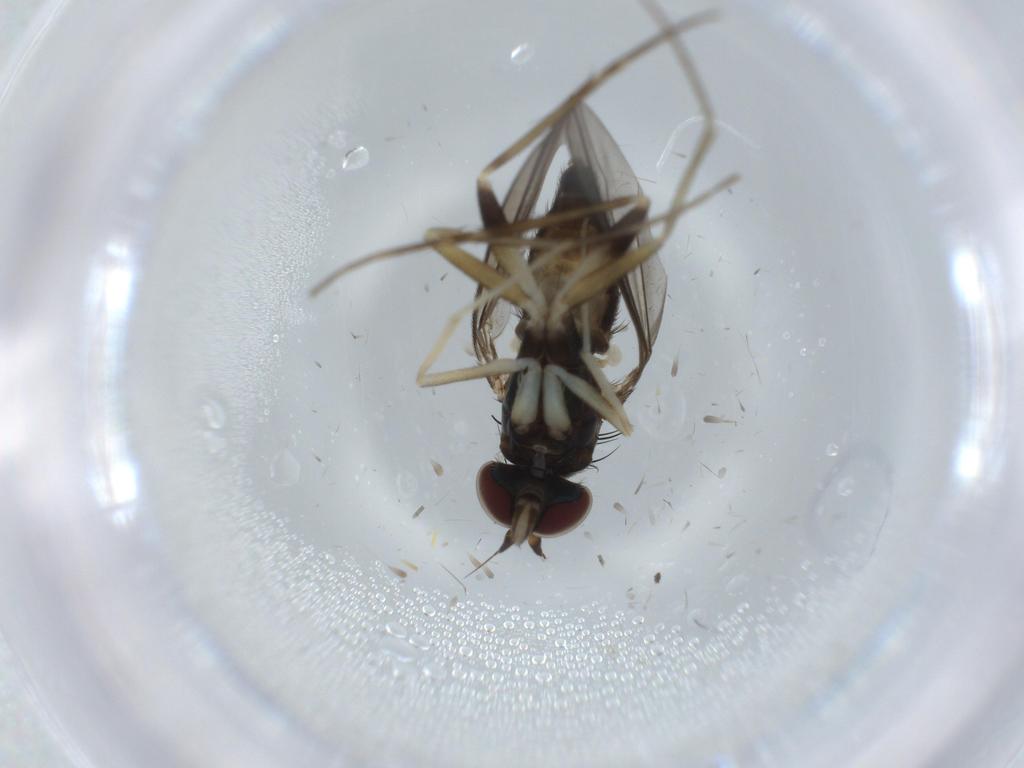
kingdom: Animalia
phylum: Arthropoda
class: Insecta
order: Diptera
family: Dolichopodidae
